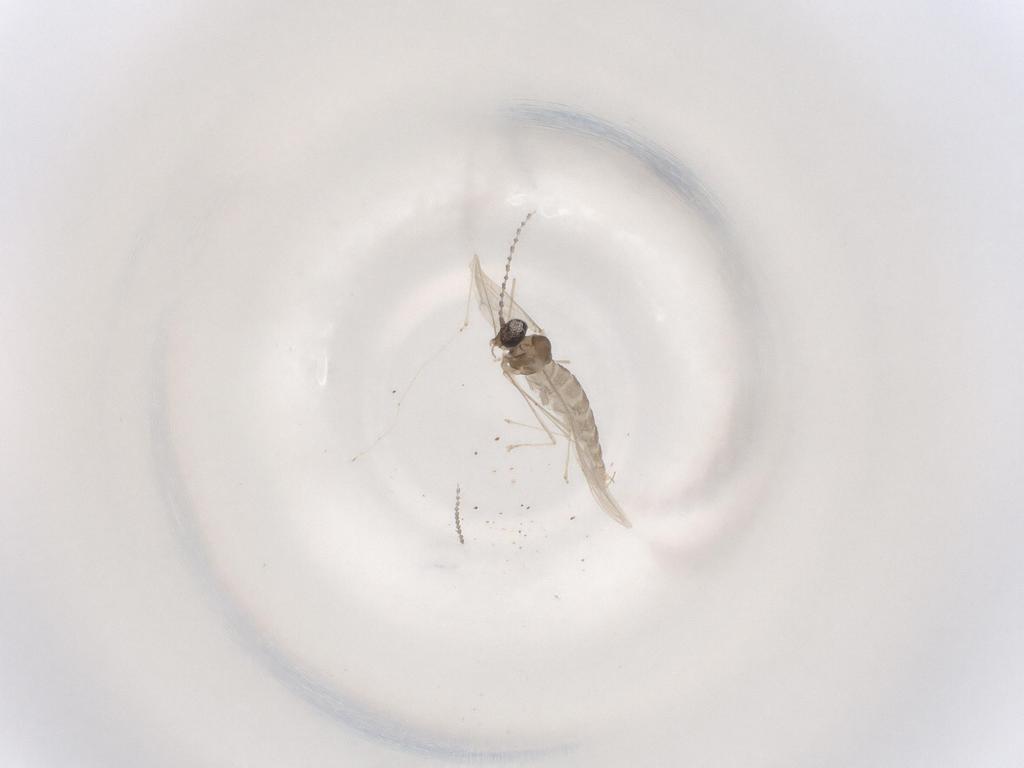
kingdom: Animalia
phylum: Arthropoda
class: Insecta
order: Diptera
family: Cecidomyiidae
